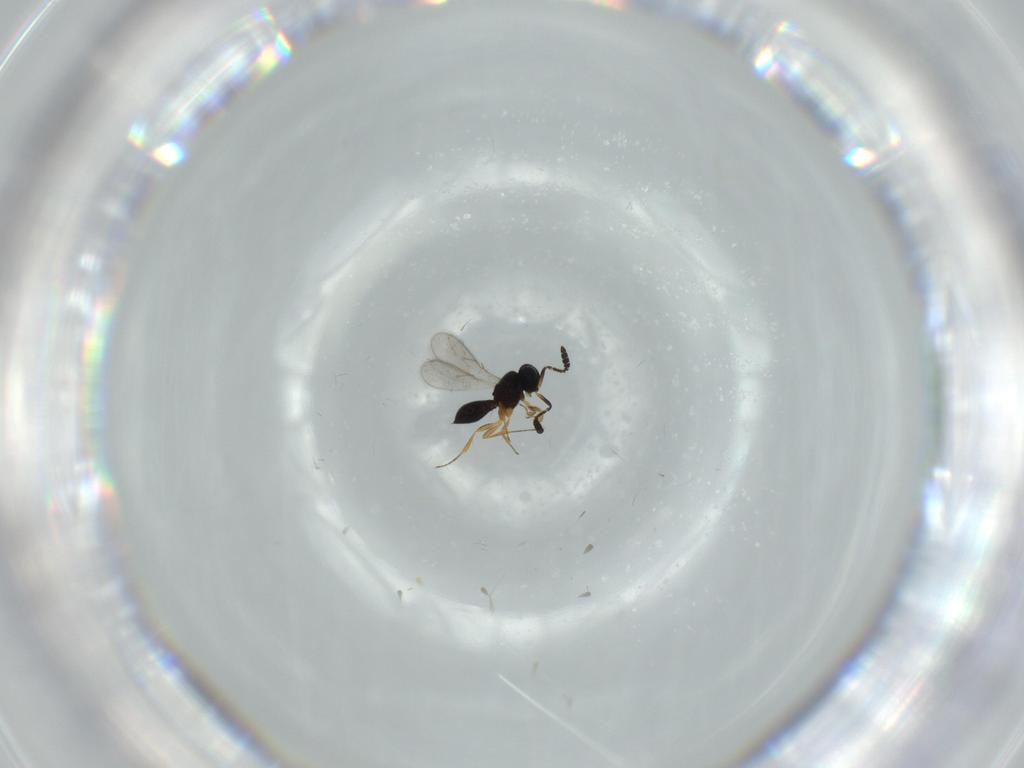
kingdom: Animalia
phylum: Arthropoda
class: Insecta
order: Hymenoptera
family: Scelionidae
